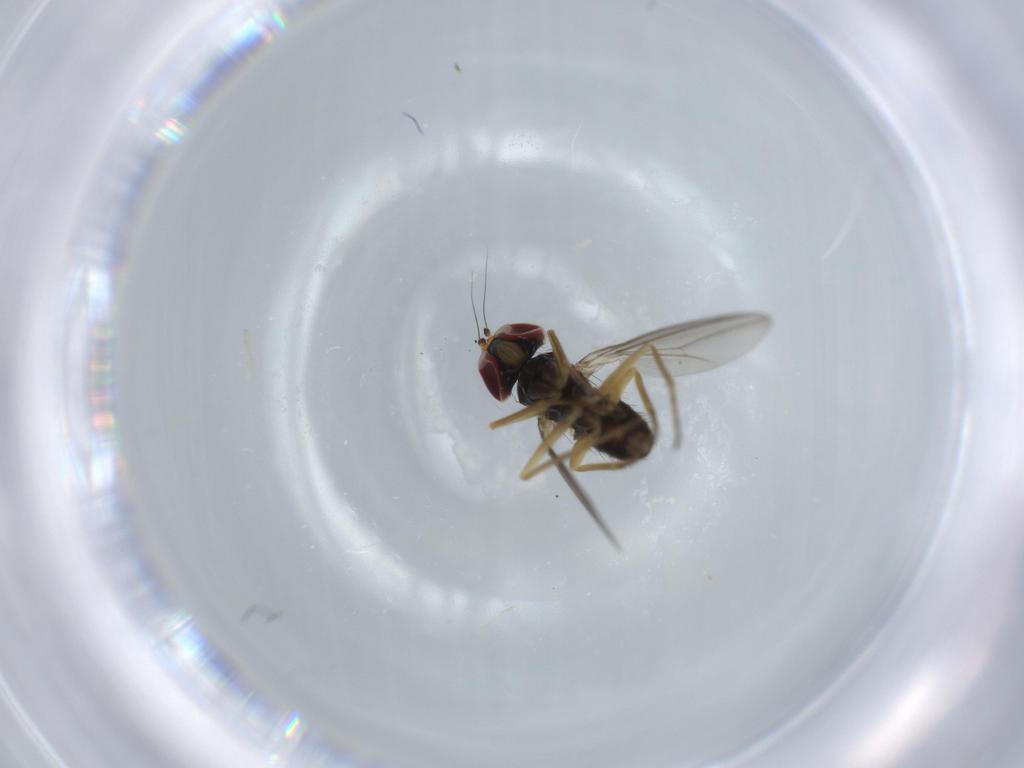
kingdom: Animalia
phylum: Arthropoda
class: Insecta
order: Diptera
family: Dolichopodidae
